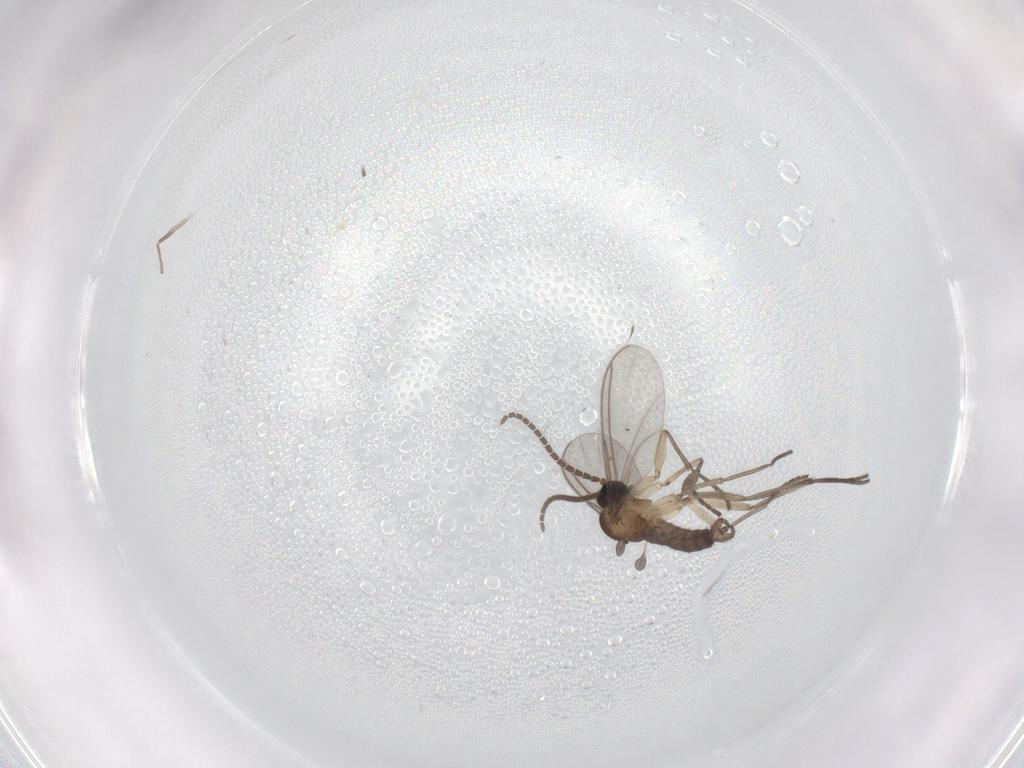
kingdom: Animalia
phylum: Arthropoda
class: Insecta
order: Diptera
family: Sciaridae
